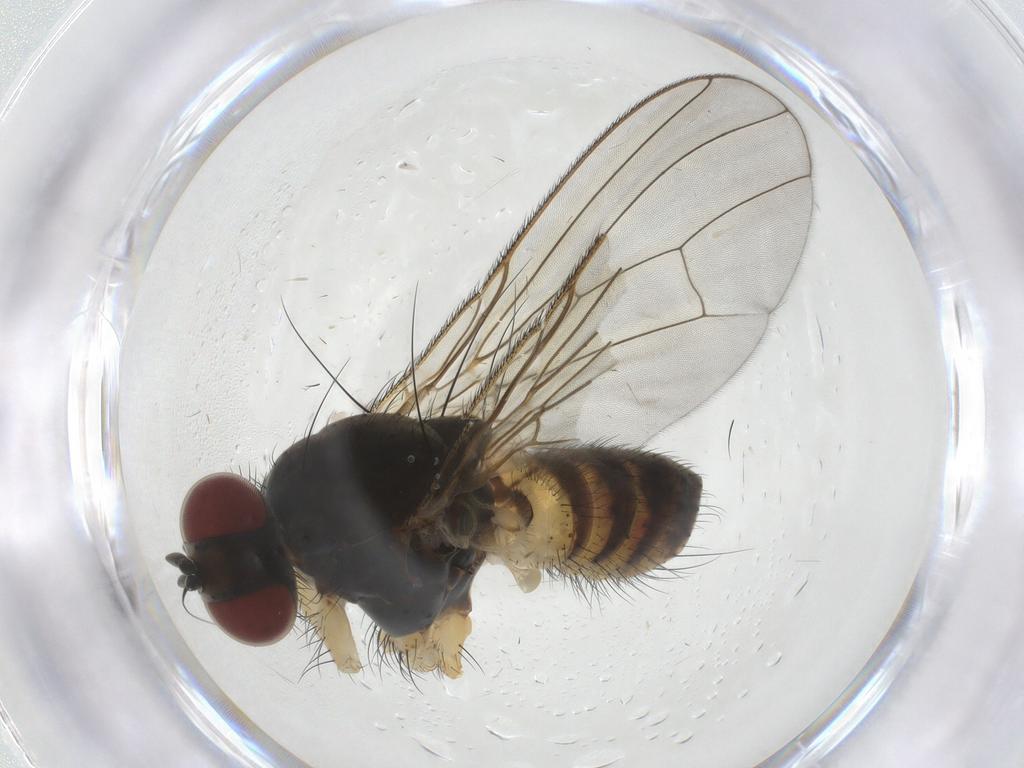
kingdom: Animalia
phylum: Arthropoda
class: Insecta
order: Diptera
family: Muscidae
